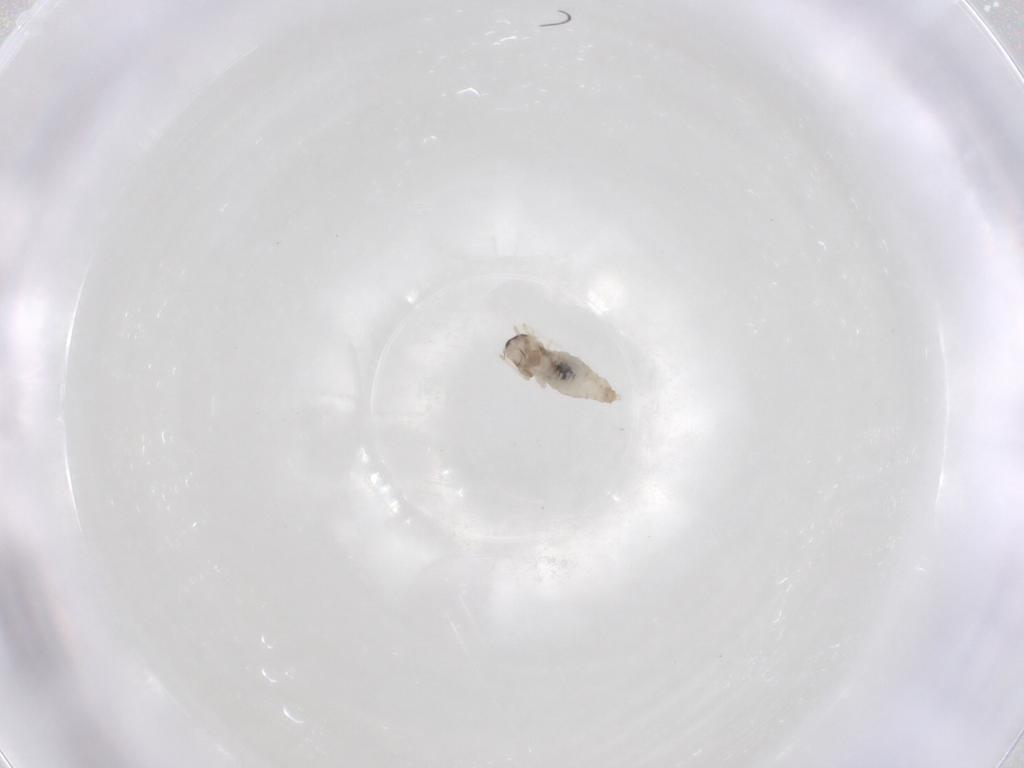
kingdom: Animalia
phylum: Arthropoda
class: Insecta
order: Diptera
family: Cecidomyiidae
